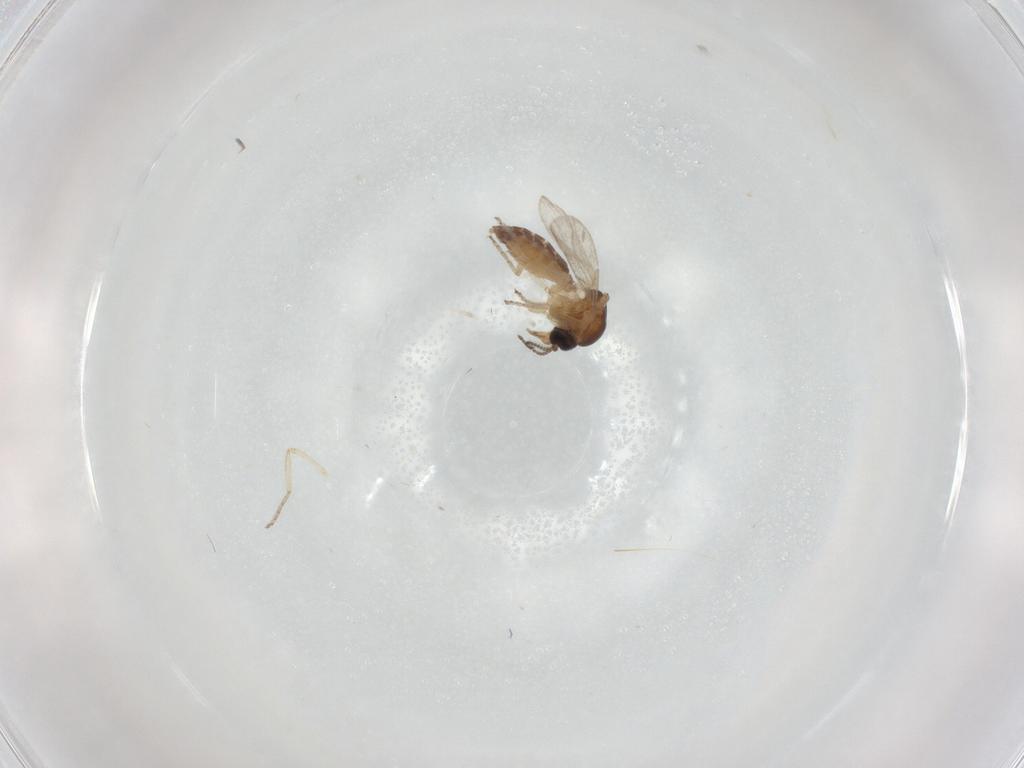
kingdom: Animalia
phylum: Arthropoda
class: Insecta
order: Diptera
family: Ceratopogonidae
